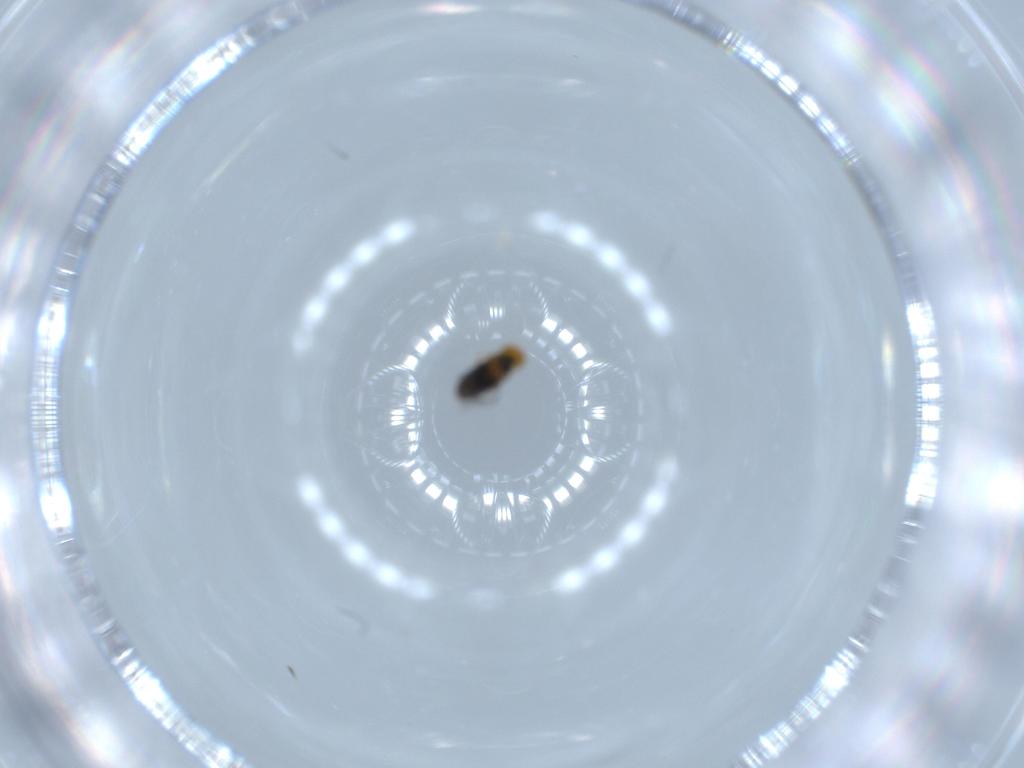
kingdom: Animalia
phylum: Arthropoda
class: Insecta
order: Hymenoptera
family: Signiphoridae
